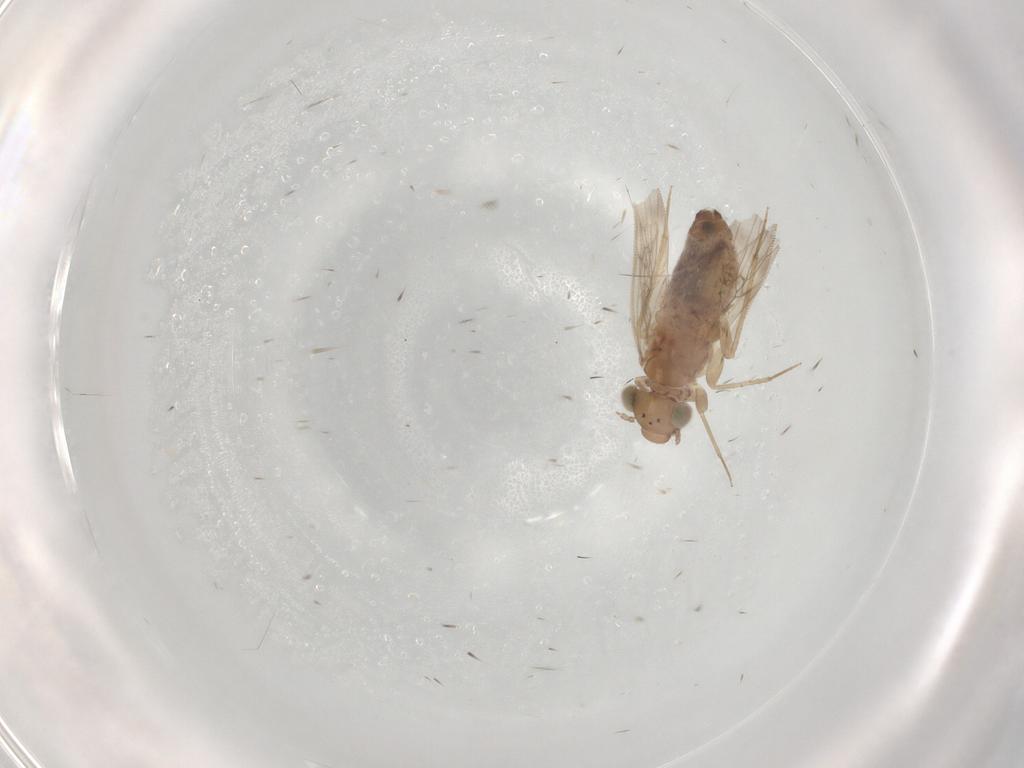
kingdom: Animalia
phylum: Arthropoda
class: Insecta
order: Psocodea
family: Lepidopsocidae
